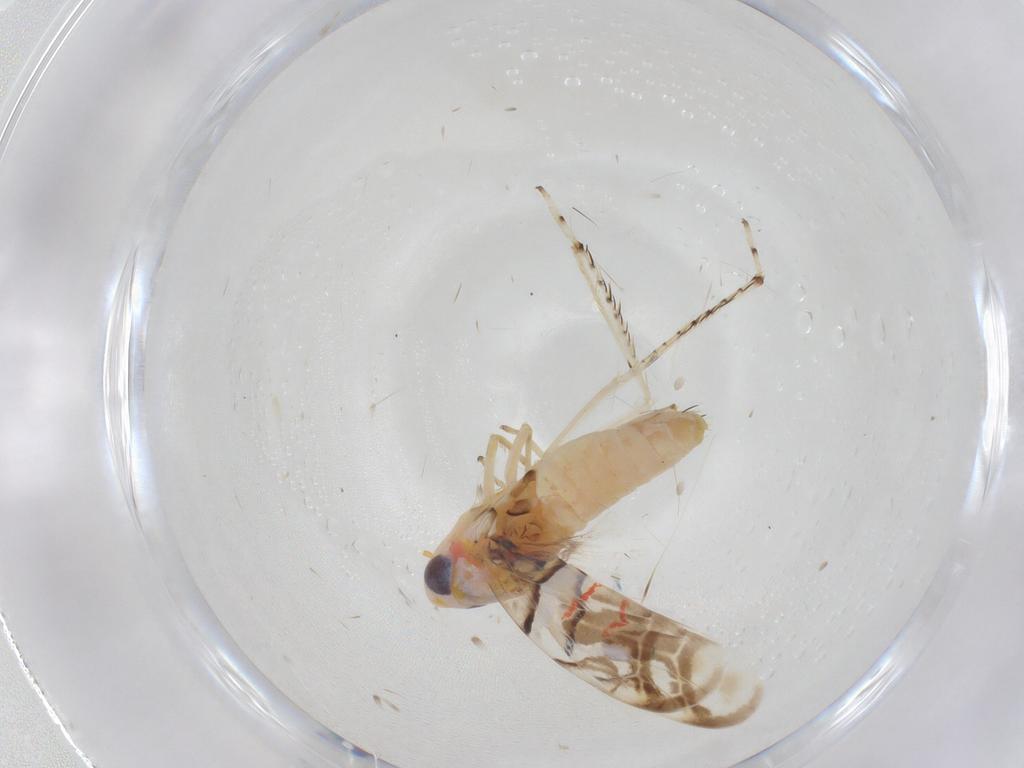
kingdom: Animalia
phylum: Arthropoda
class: Insecta
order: Hemiptera
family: Cicadellidae
